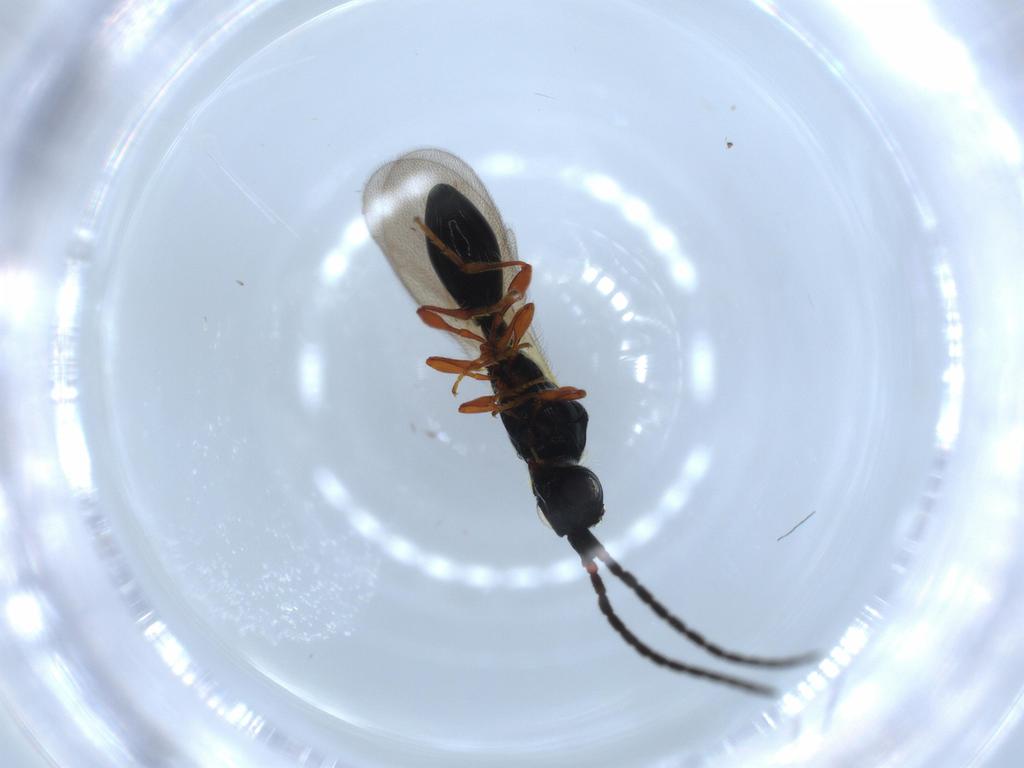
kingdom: Animalia
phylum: Arthropoda
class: Insecta
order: Hymenoptera
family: Diapriidae
